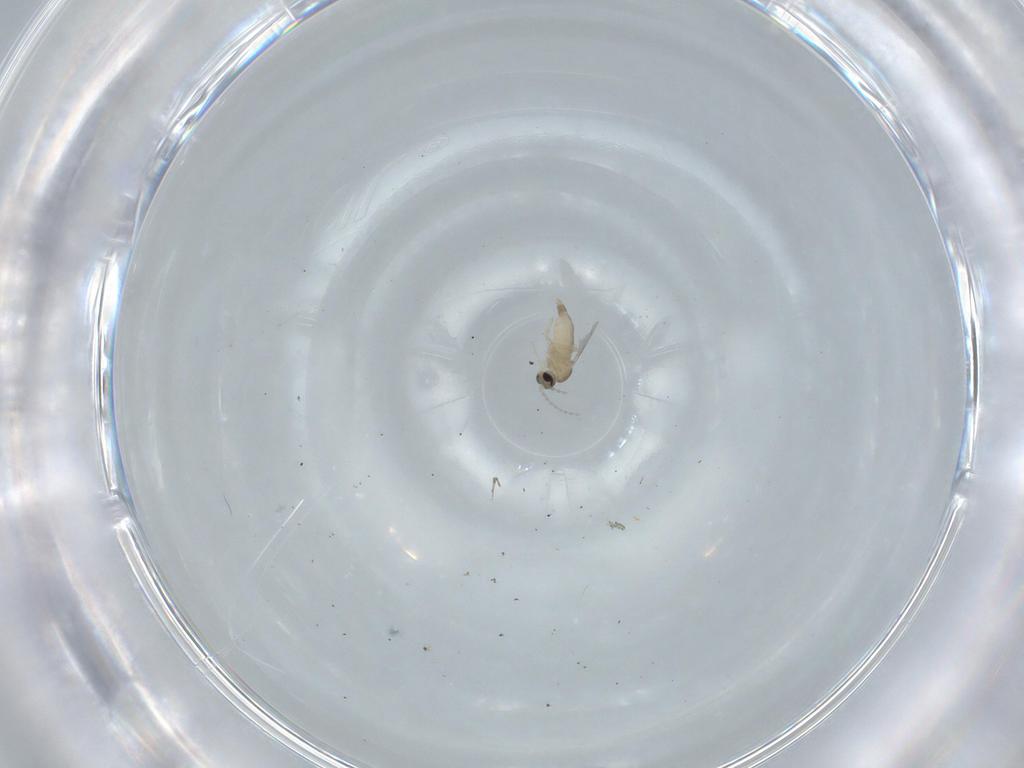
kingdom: Animalia
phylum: Arthropoda
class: Insecta
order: Diptera
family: Cecidomyiidae
